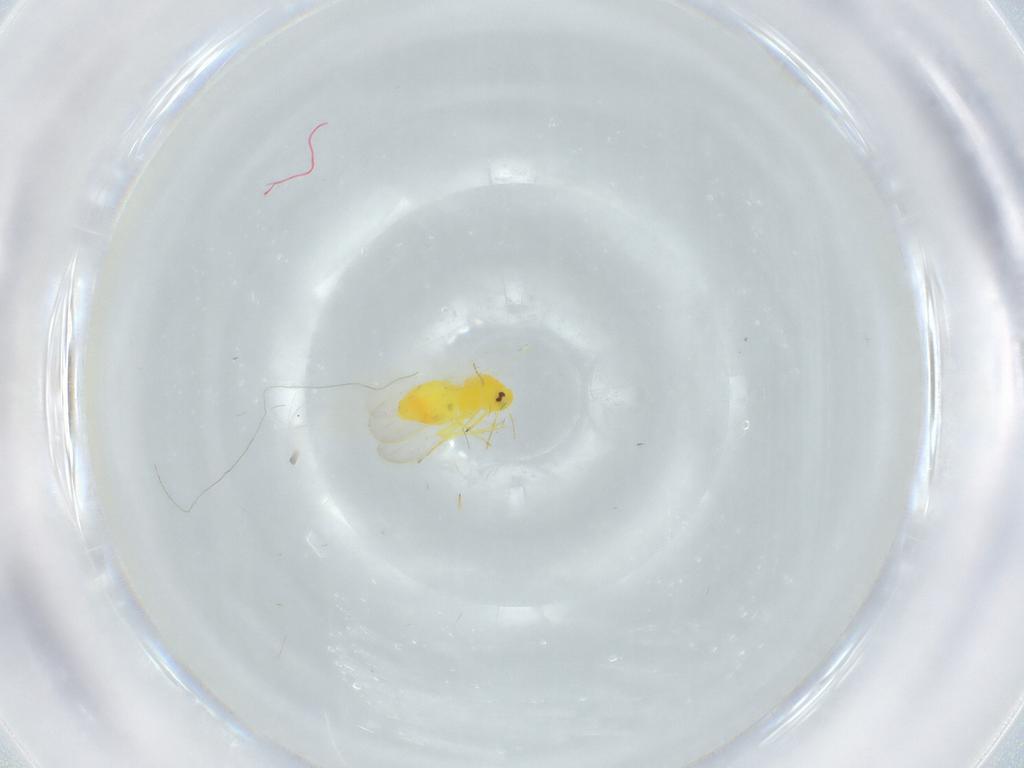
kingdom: Animalia
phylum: Arthropoda
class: Insecta
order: Hemiptera
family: Aleyrodidae
